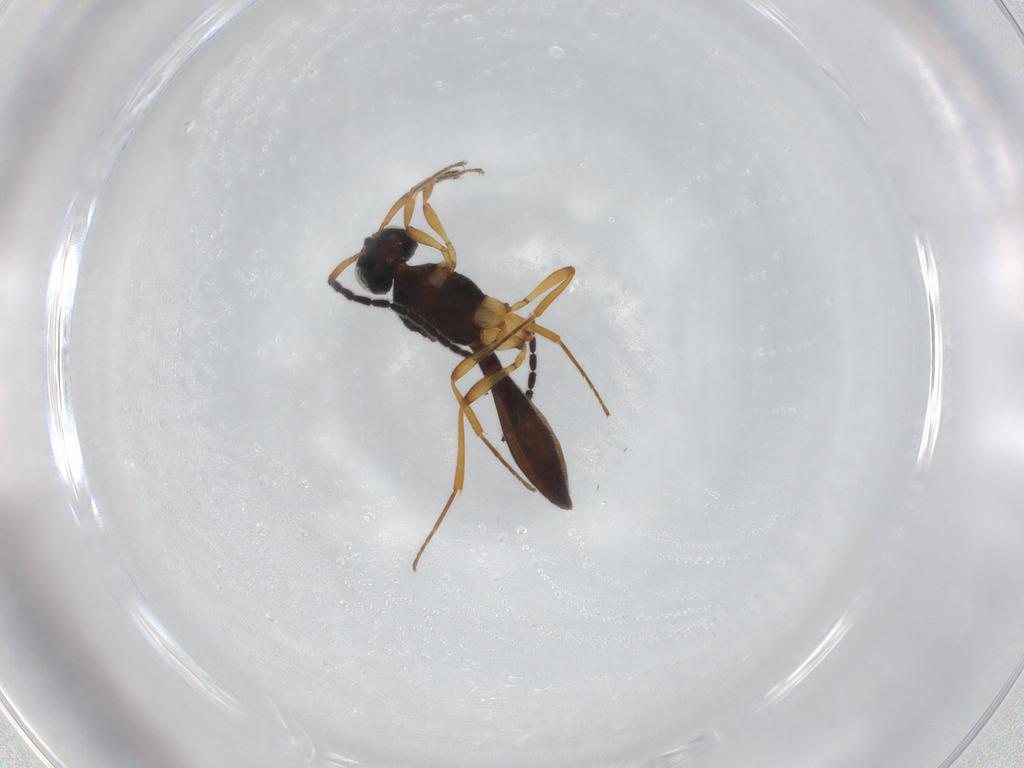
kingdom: Animalia
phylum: Arthropoda
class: Insecta
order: Hymenoptera
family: Scelionidae
